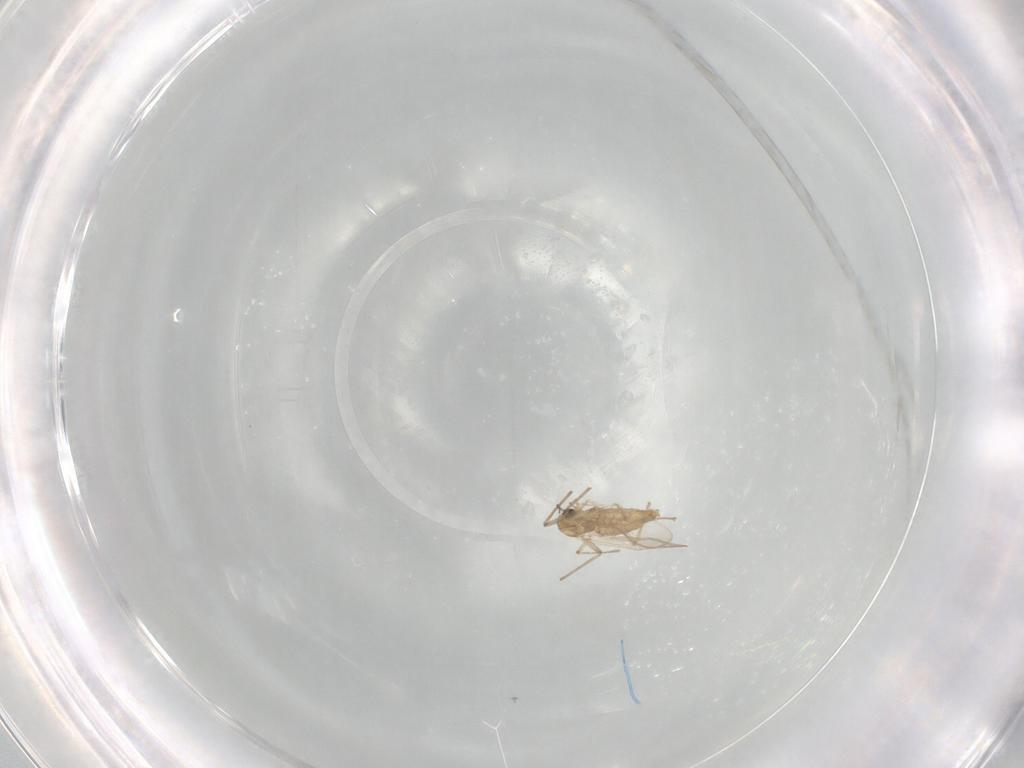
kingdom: Animalia
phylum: Arthropoda
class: Insecta
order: Diptera
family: Chironomidae
